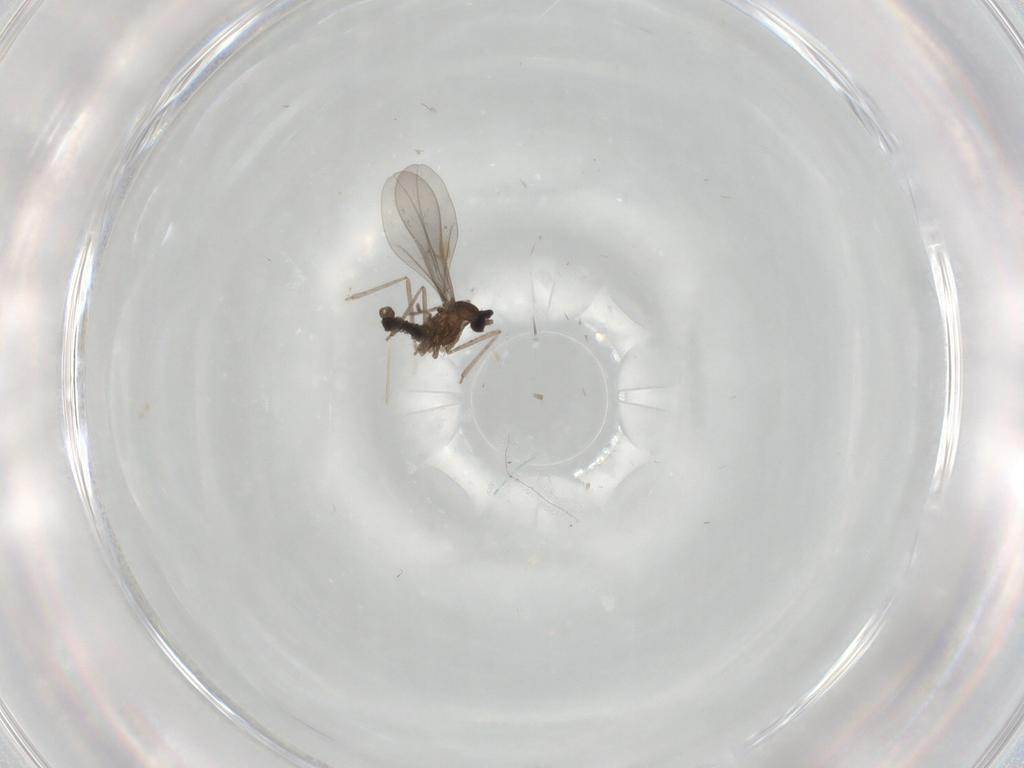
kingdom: Animalia
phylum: Arthropoda
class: Insecta
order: Diptera
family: Cecidomyiidae
